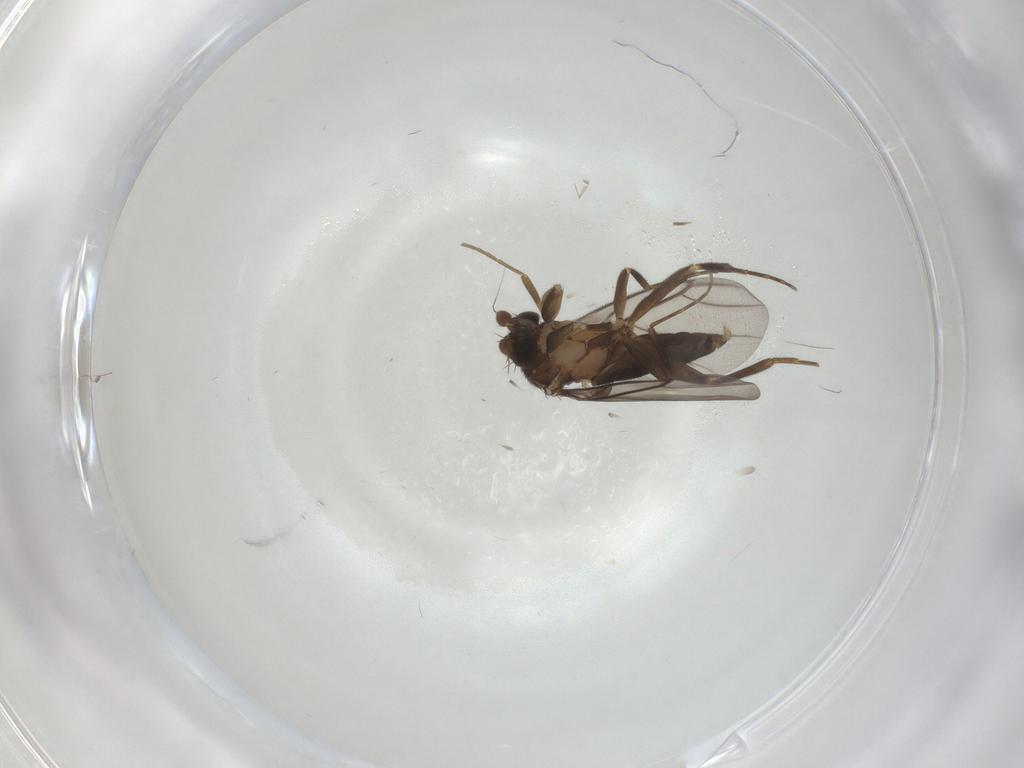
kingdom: Animalia
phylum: Arthropoda
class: Insecta
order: Diptera
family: Phoridae
